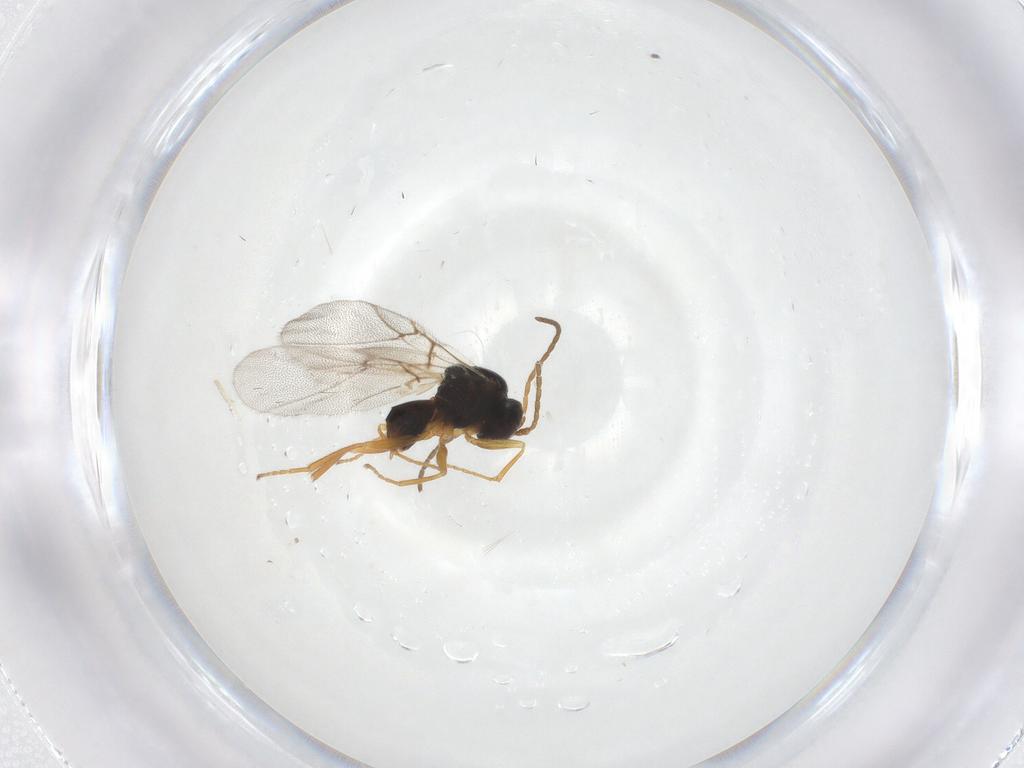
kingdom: Animalia
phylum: Arthropoda
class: Insecta
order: Hymenoptera
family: Cynipidae
